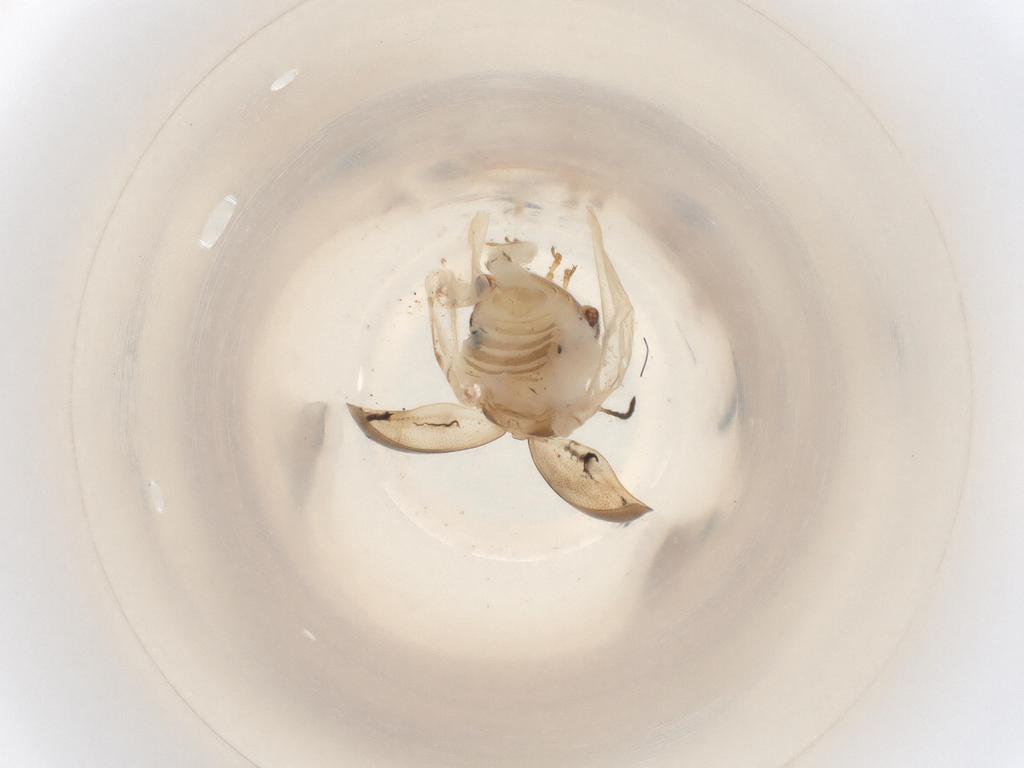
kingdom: Animalia
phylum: Arthropoda
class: Insecta
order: Coleoptera
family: Chrysomelidae
